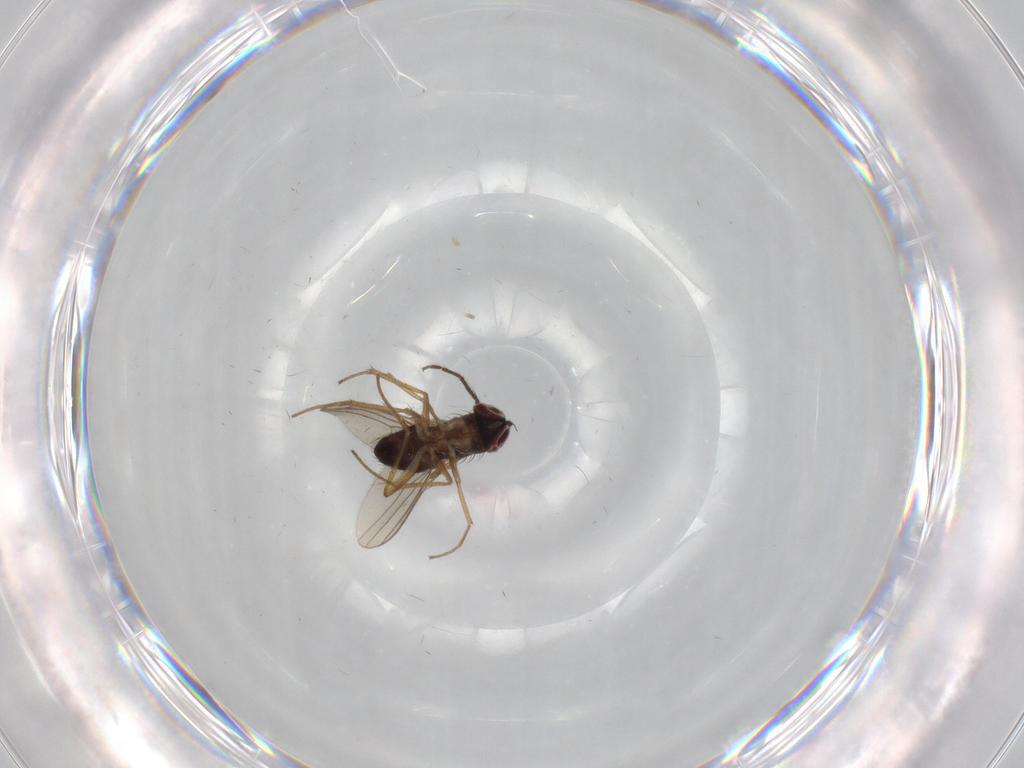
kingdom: Animalia
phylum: Arthropoda
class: Insecta
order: Diptera
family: Dolichopodidae
